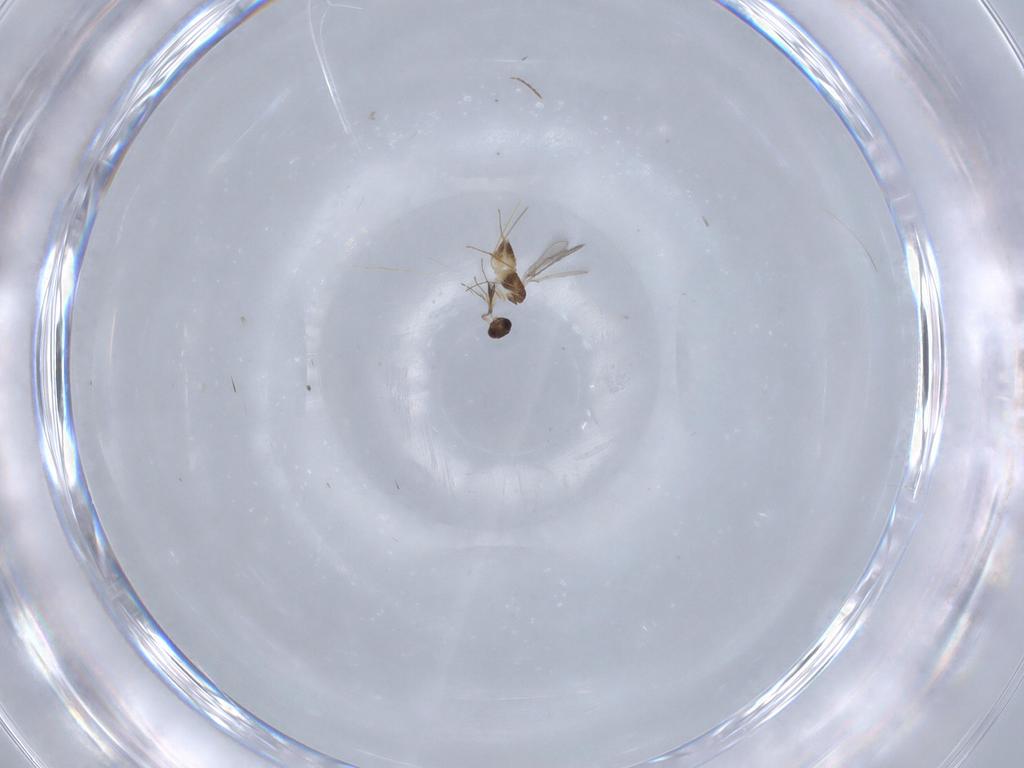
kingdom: Animalia
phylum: Arthropoda
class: Insecta
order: Hymenoptera
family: Mymaridae
